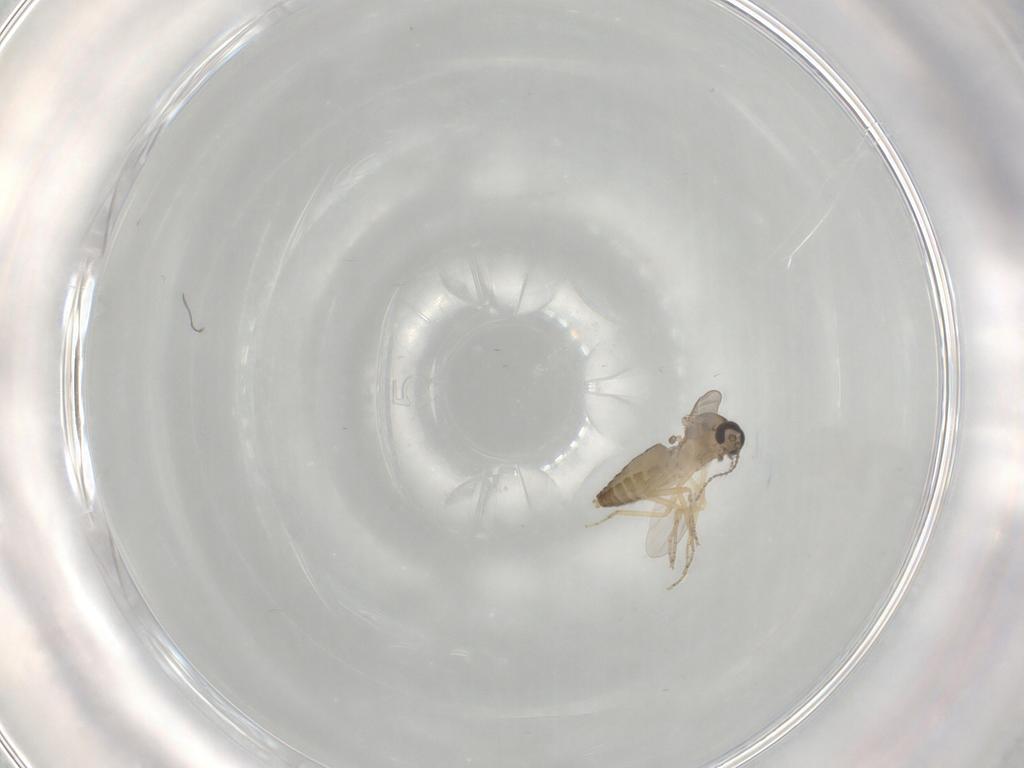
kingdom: Animalia
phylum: Arthropoda
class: Insecta
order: Diptera
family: Ceratopogonidae
